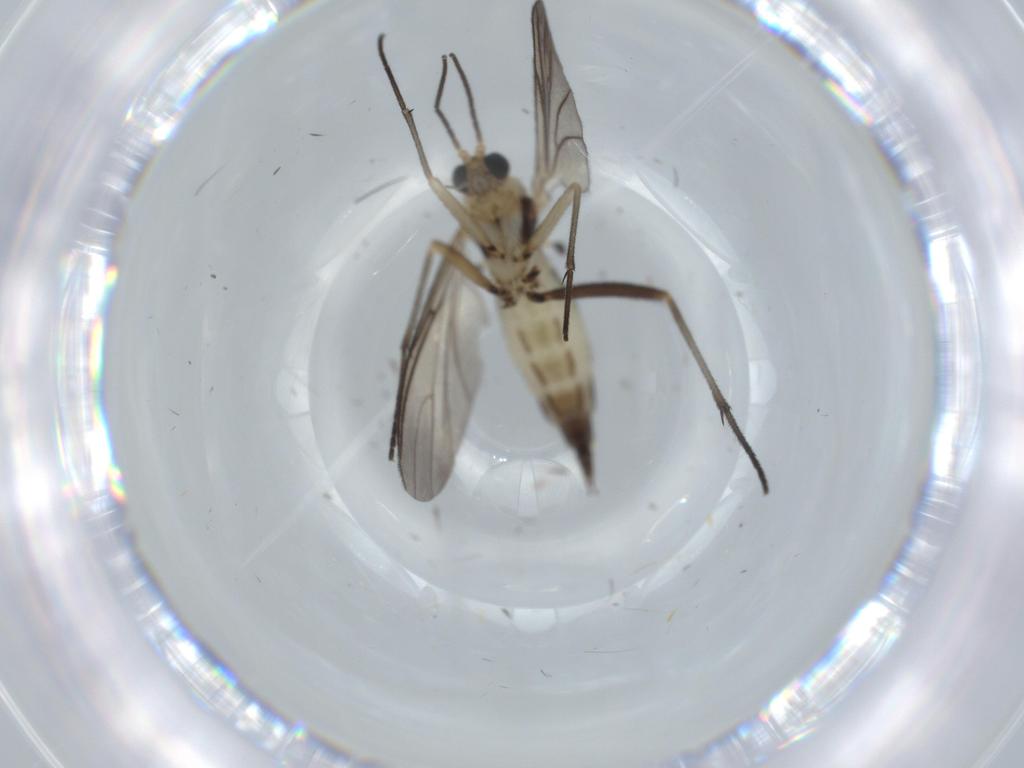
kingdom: Animalia
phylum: Arthropoda
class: Insecta
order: Diptera
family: Sciaridae
